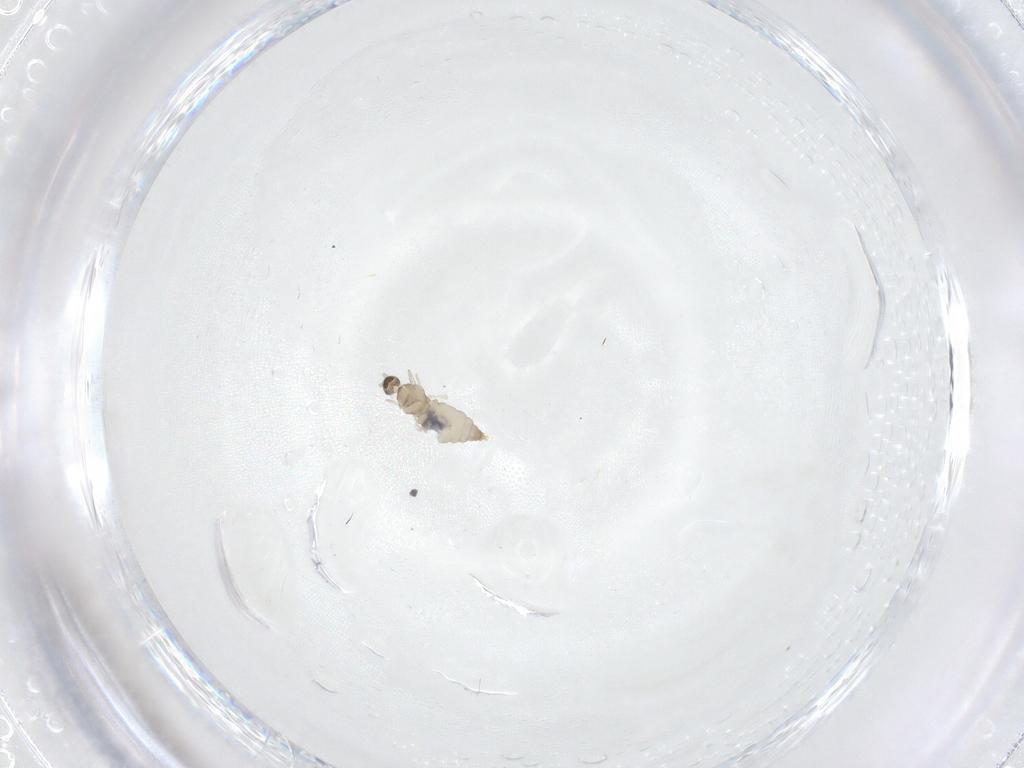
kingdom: Animalia
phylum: Arthropoda
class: Insecta
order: Diptera
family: Cecidomyiidae
